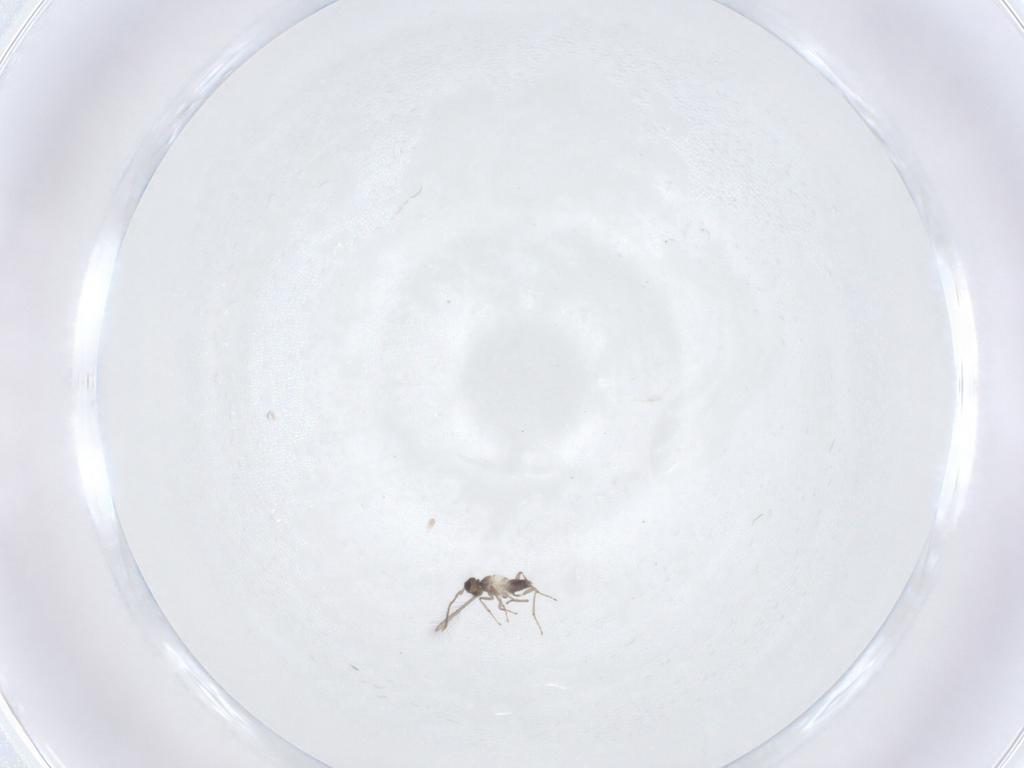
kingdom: Animalia
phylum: Arthropoda
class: Insecta
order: Hymenoptera
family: Mymaridae
